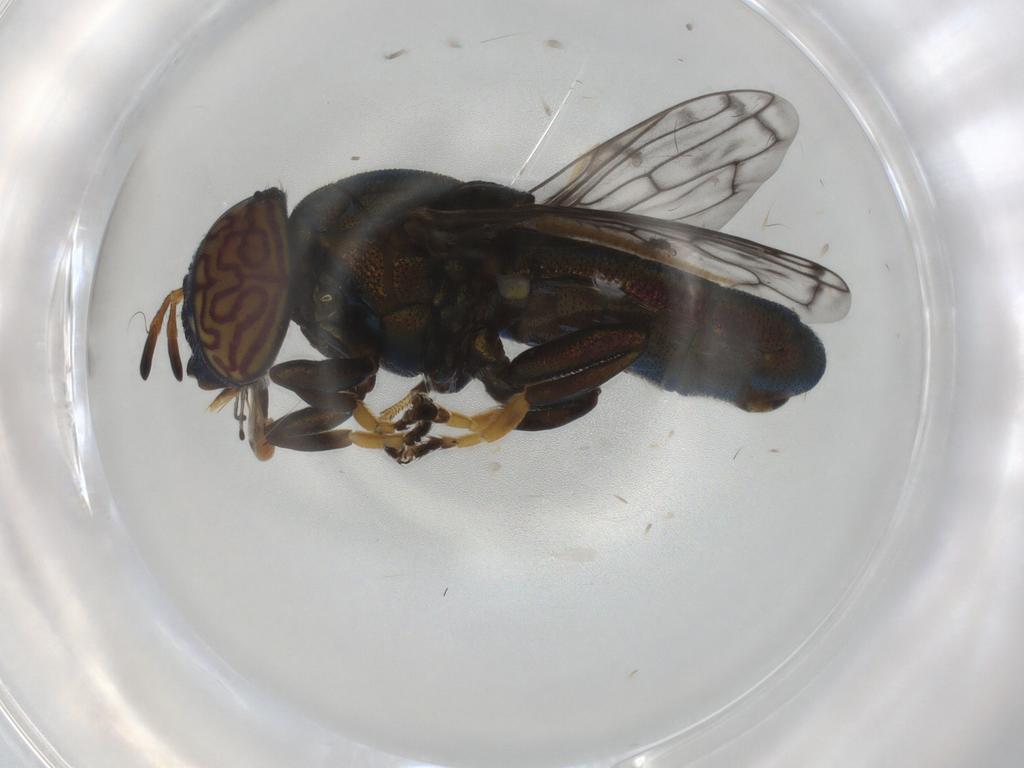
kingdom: Animalia
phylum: Arthropoda
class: Insecta
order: Diptera
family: Syrphidae
